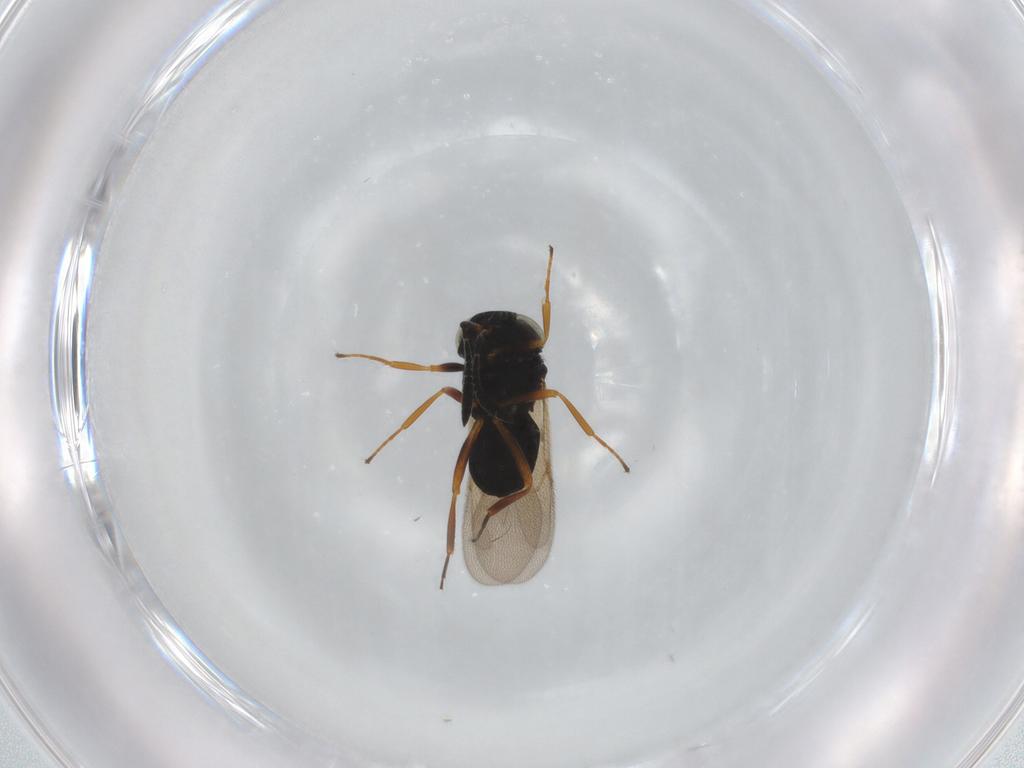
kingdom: Animalia
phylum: Arthropoda
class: Insecta
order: Hymenoptera
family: Scelionidae
